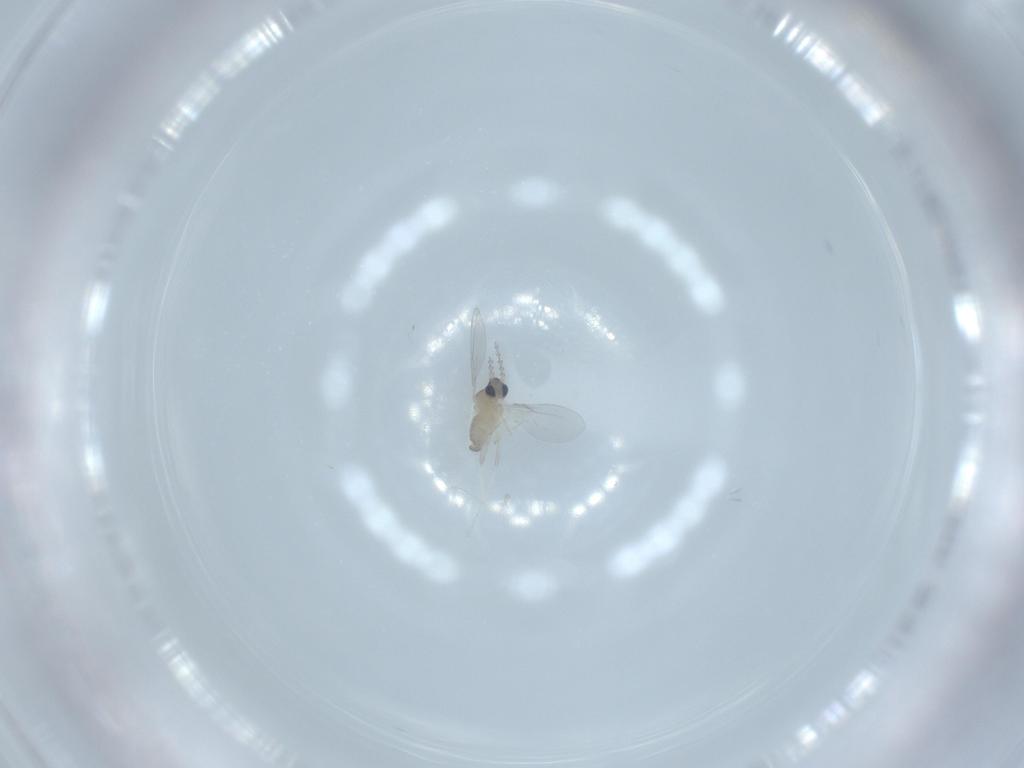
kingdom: Animalia
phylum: Arthropoda
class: Insecta
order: Diptera
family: Cecidomyiidae
